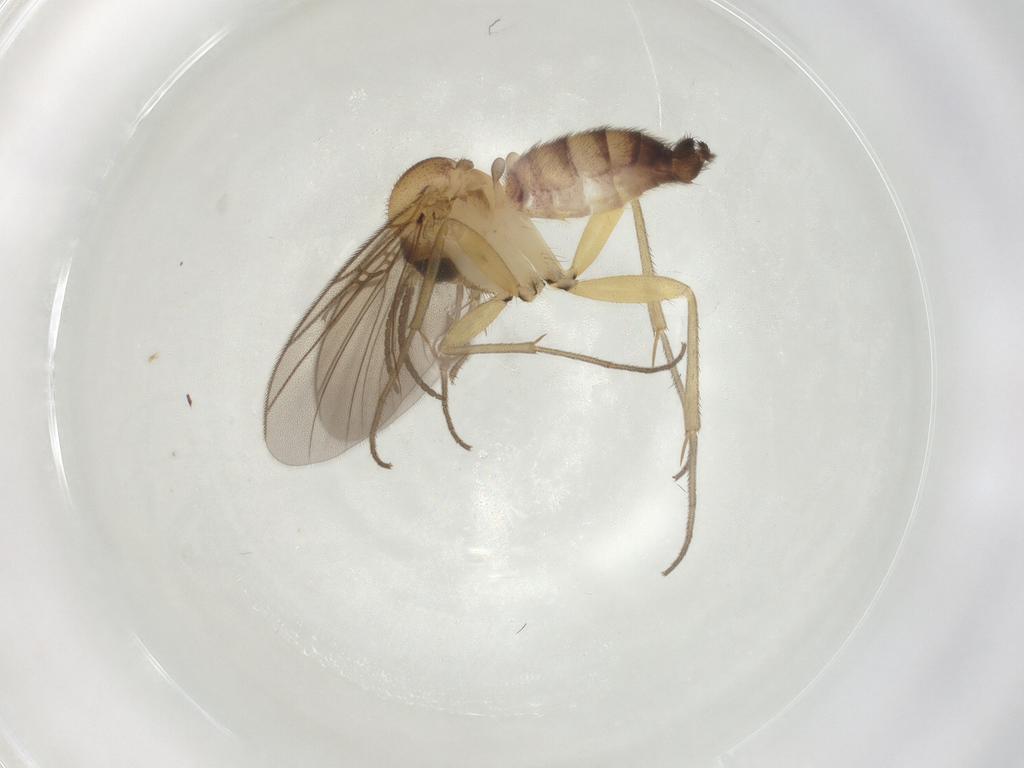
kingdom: Animalia
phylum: Arthropoda
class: Insecta
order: Diptera
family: Mycetophilidae
